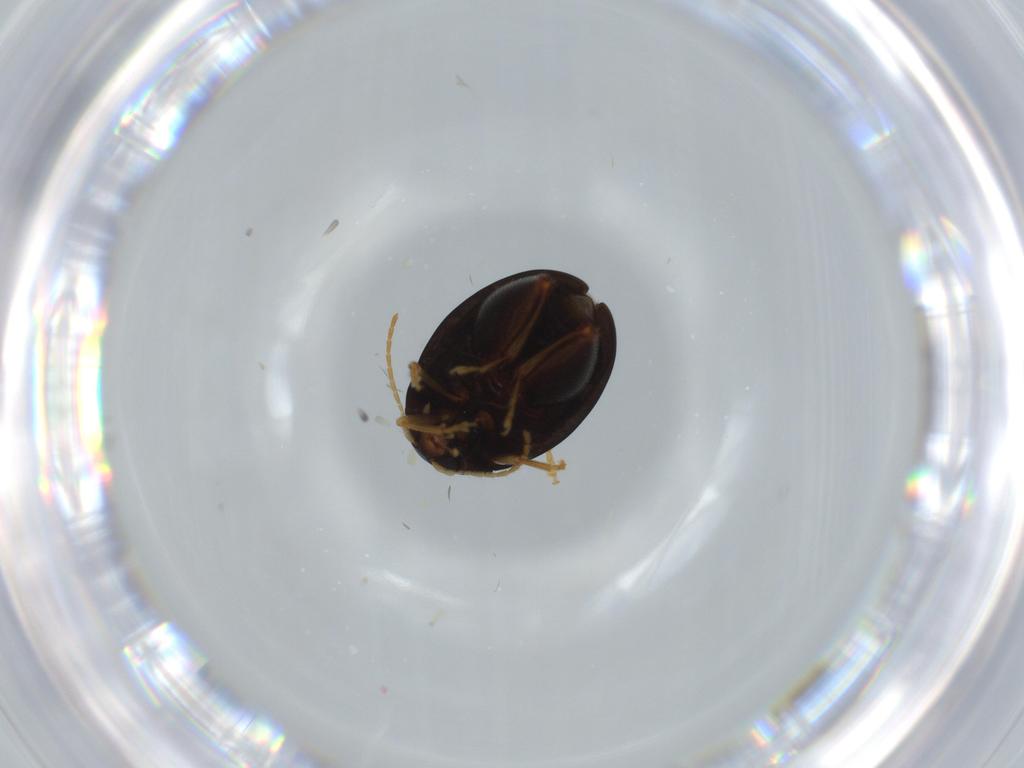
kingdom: Animalia
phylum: Arthropoda
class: Insecta
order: Coleoptera
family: Chrysomelidae
